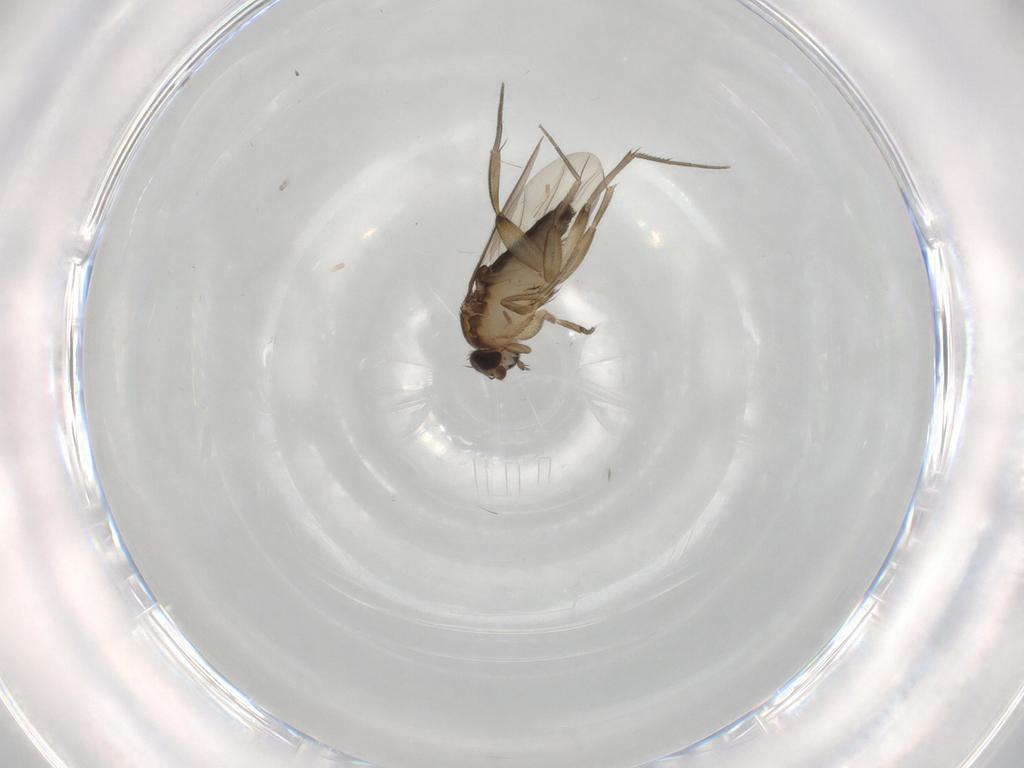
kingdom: Animalia
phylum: Arthropoda
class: Insecta
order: Diptera
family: Phoridae
